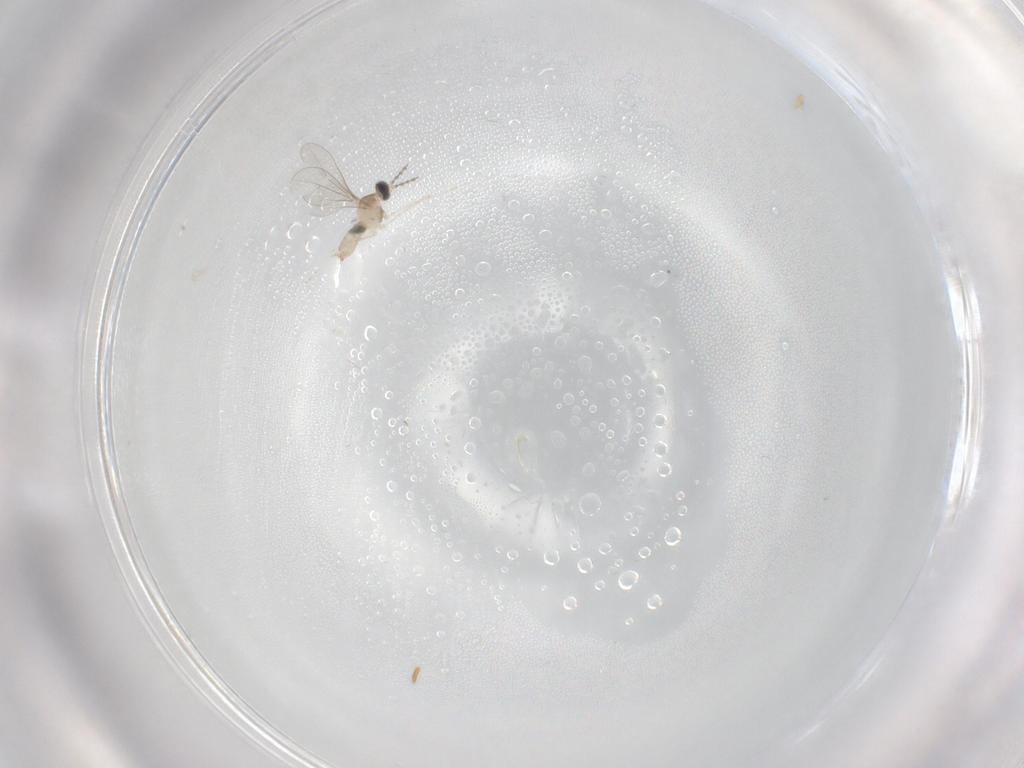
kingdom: Animalia
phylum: Arthropoda
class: Insecta
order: Diptera
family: Cecidomyiidae
